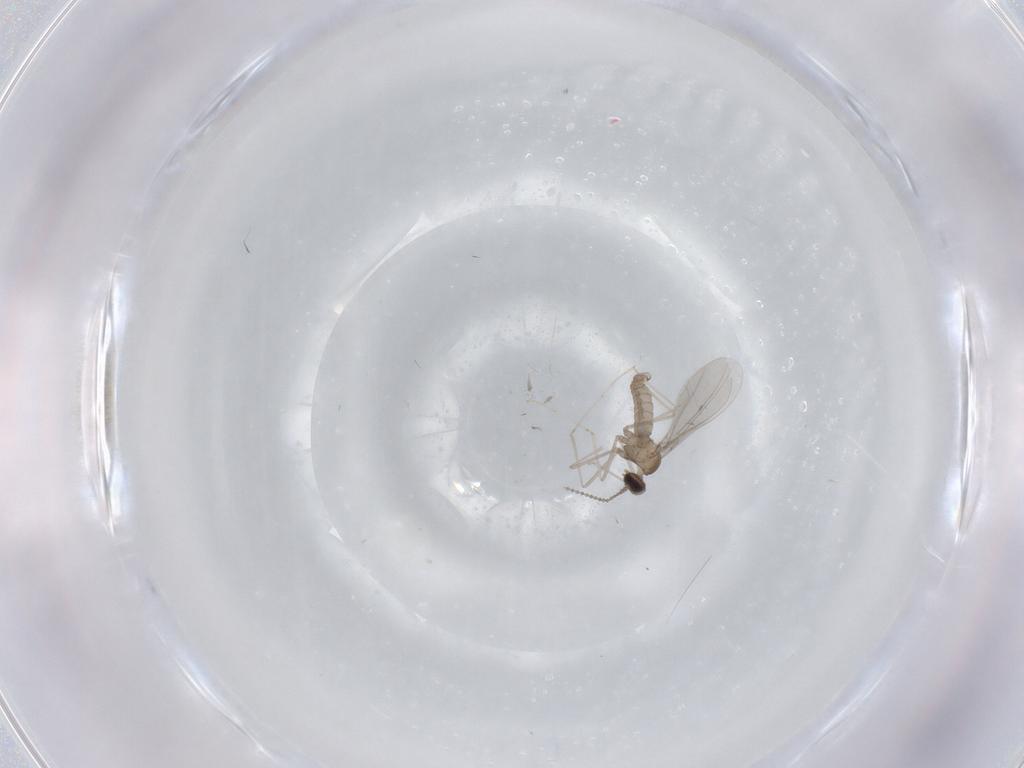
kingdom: Animalia
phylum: Arthropoda
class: Insecta
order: Diptera
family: Cecidomyiidae
